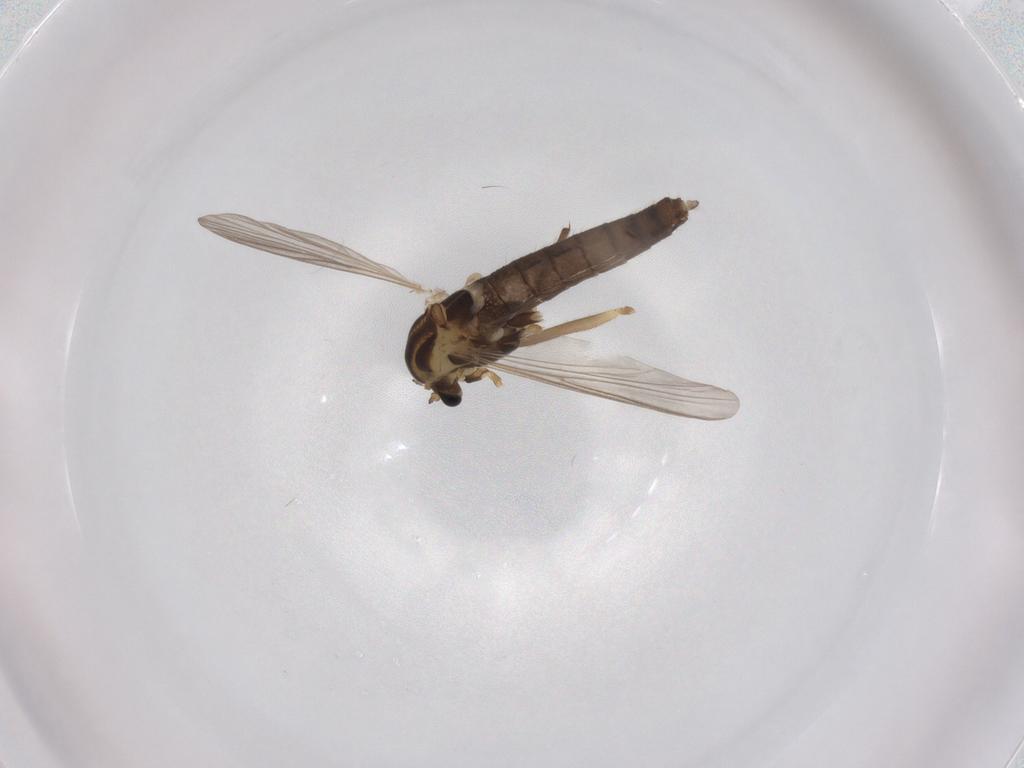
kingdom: Animalia
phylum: Arthropoda
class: Insecta
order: Diptera
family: Chironomidae
